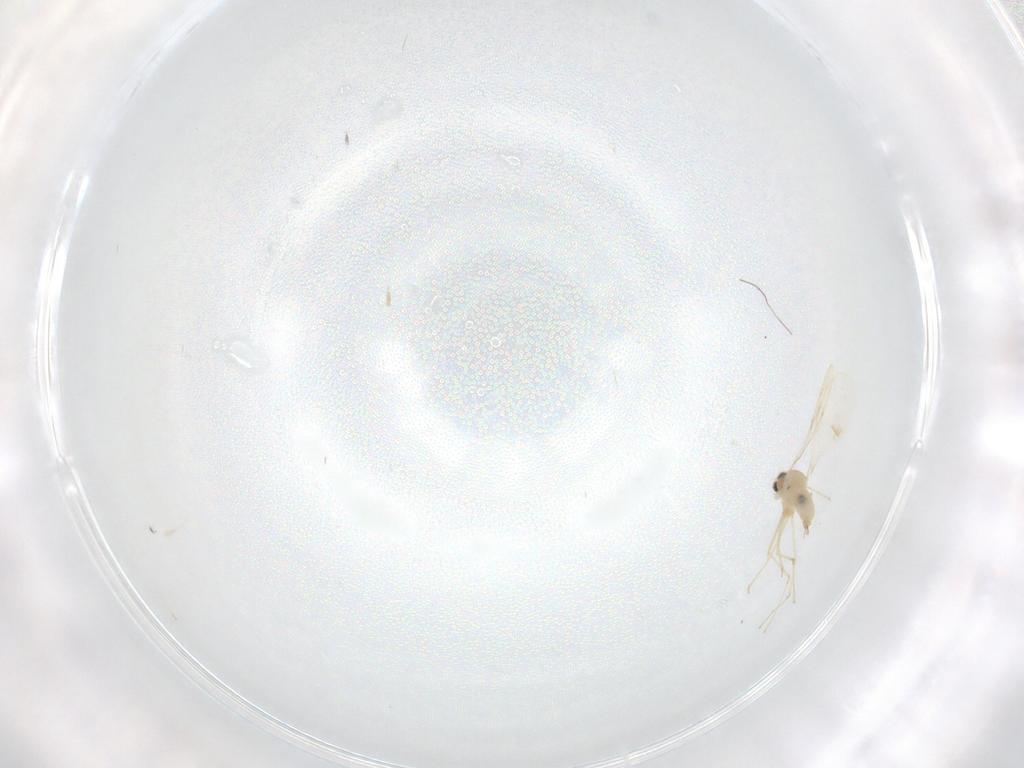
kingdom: Animalia
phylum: Arthropoda
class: Insecta
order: Diptera
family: Cecidomyiidae
